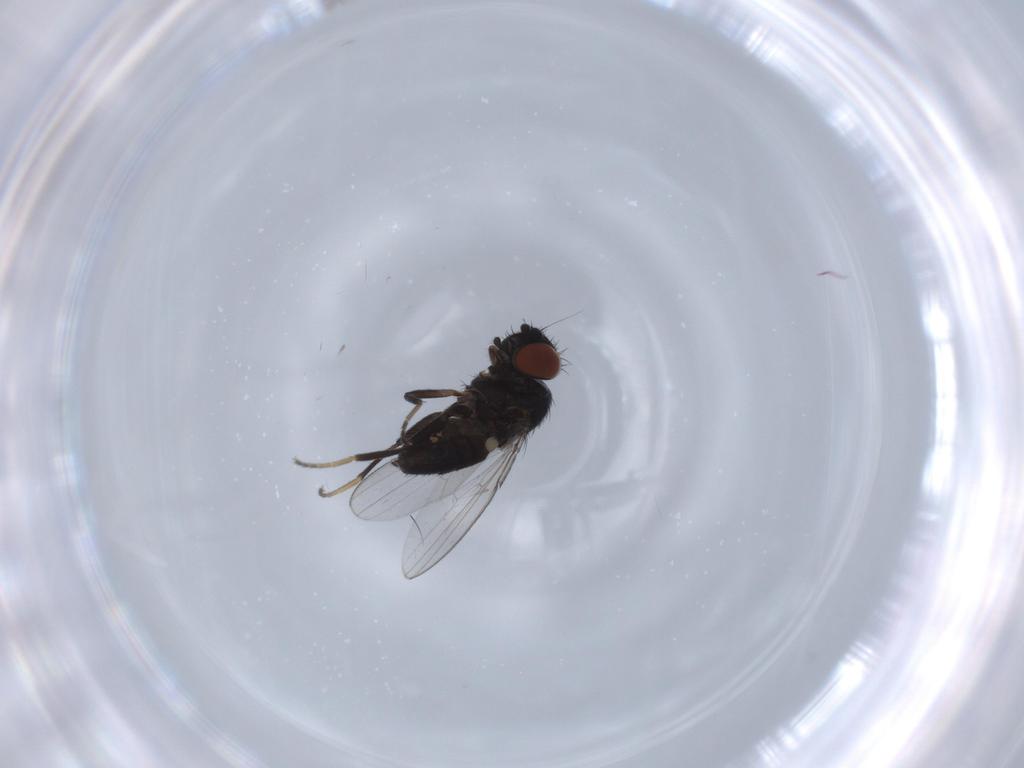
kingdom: Animalia
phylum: Arthropoda
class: Insecta
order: Diptera
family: Milichiidae
